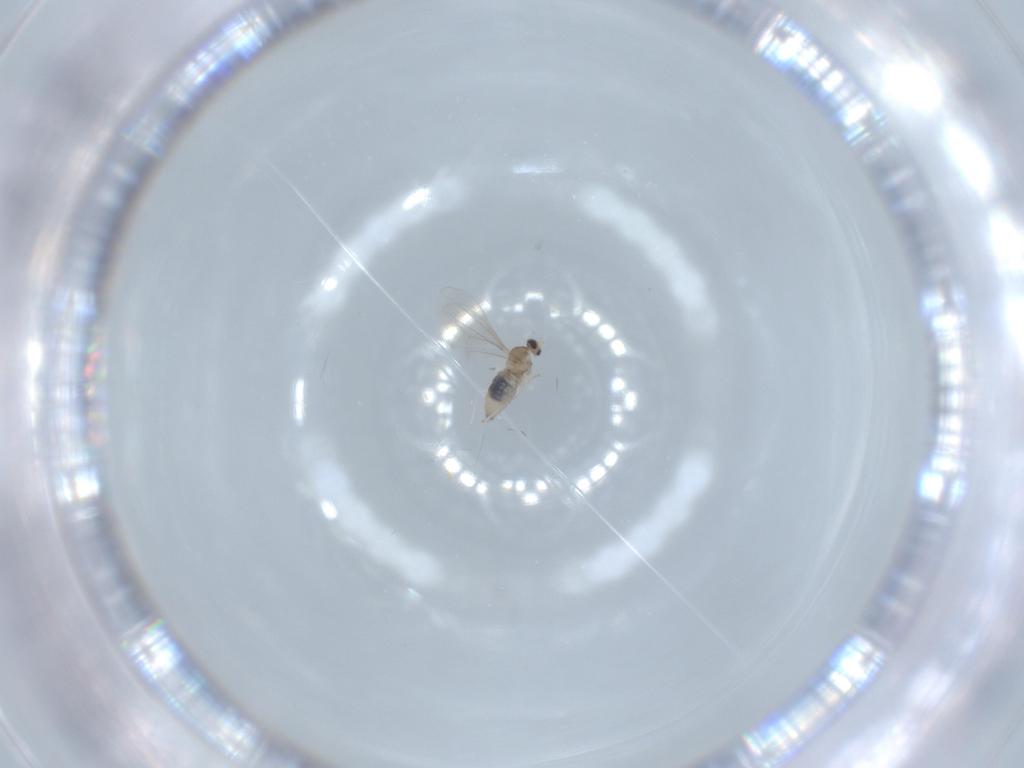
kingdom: Animalia
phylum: Arthropoda
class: Insecta
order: Diptera
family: Cecidomyiidae
